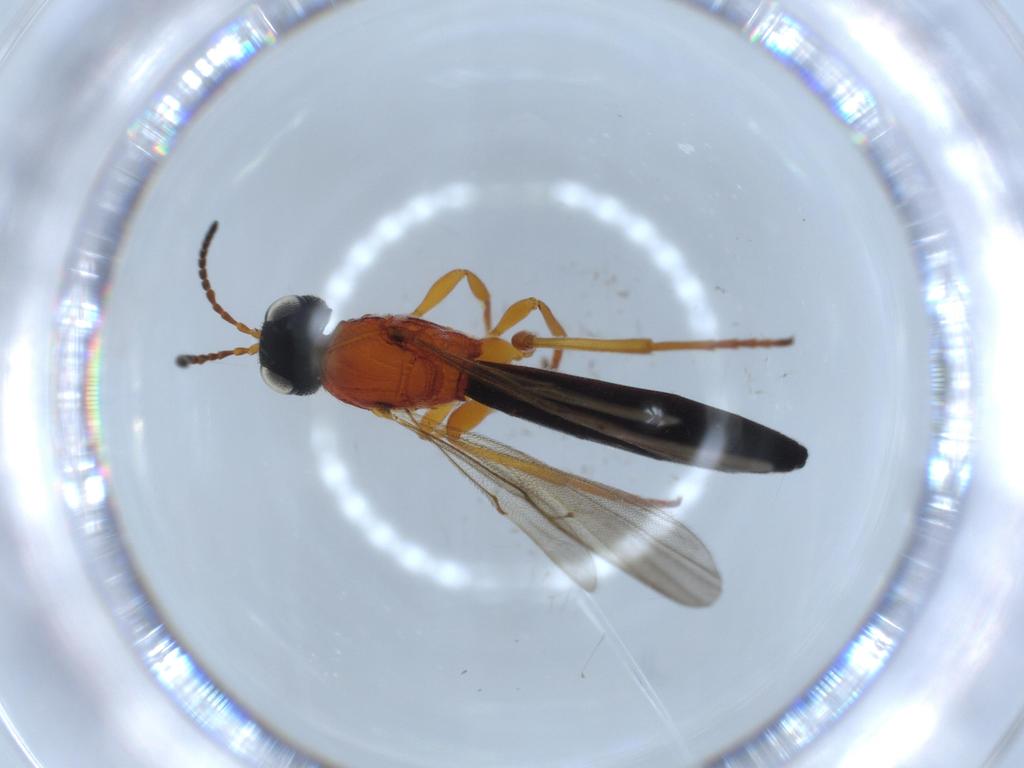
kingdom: Animalia
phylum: Arthropoda
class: Insecta
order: Hymenoptera
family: Scelionidae
